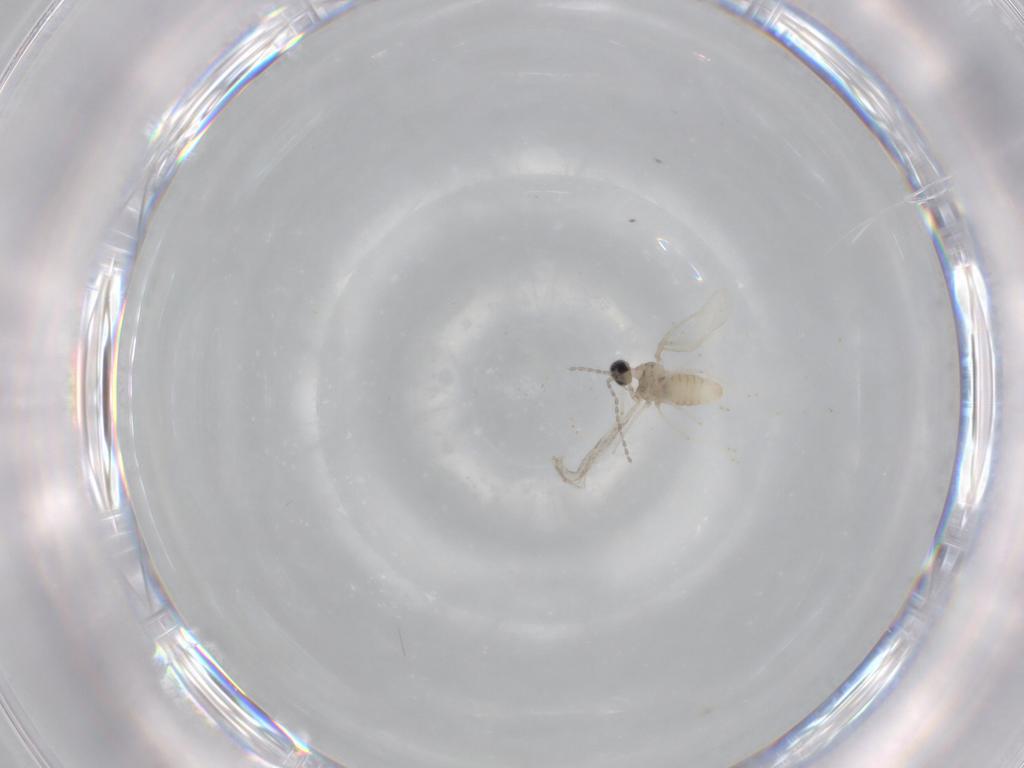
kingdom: Animalia
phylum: Arthropoda
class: Insecta
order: Diptera
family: Cecidomyiidae
